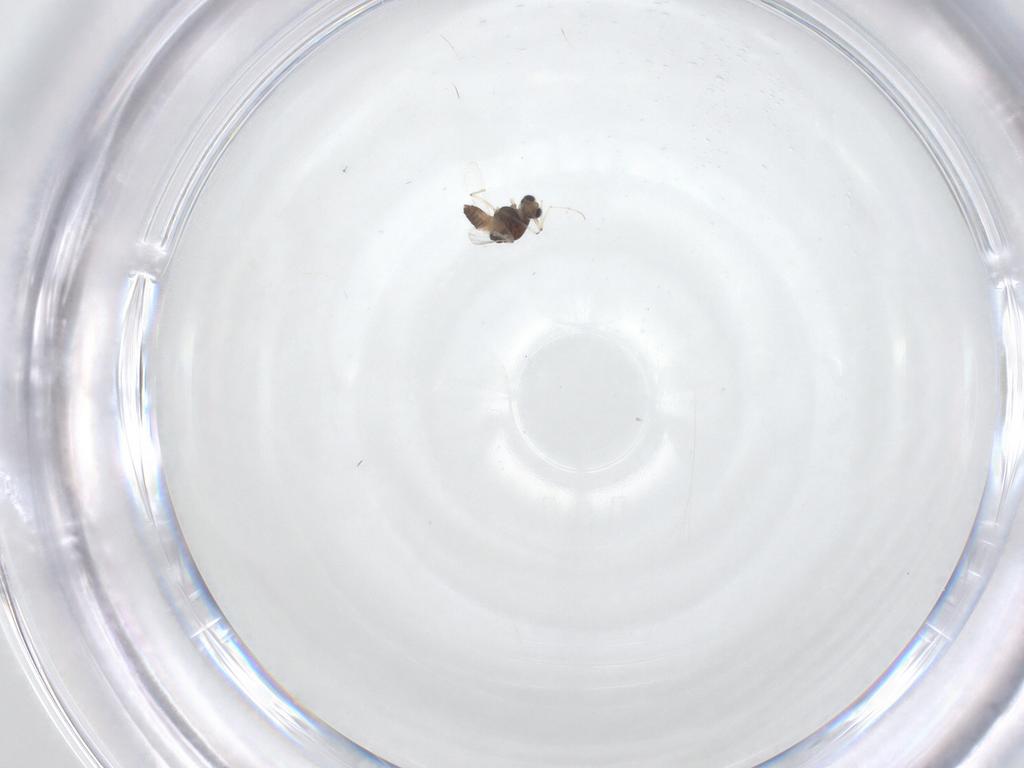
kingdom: Animalia
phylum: Arthropoda
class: Insecta
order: Diptera
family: Chironomidae
